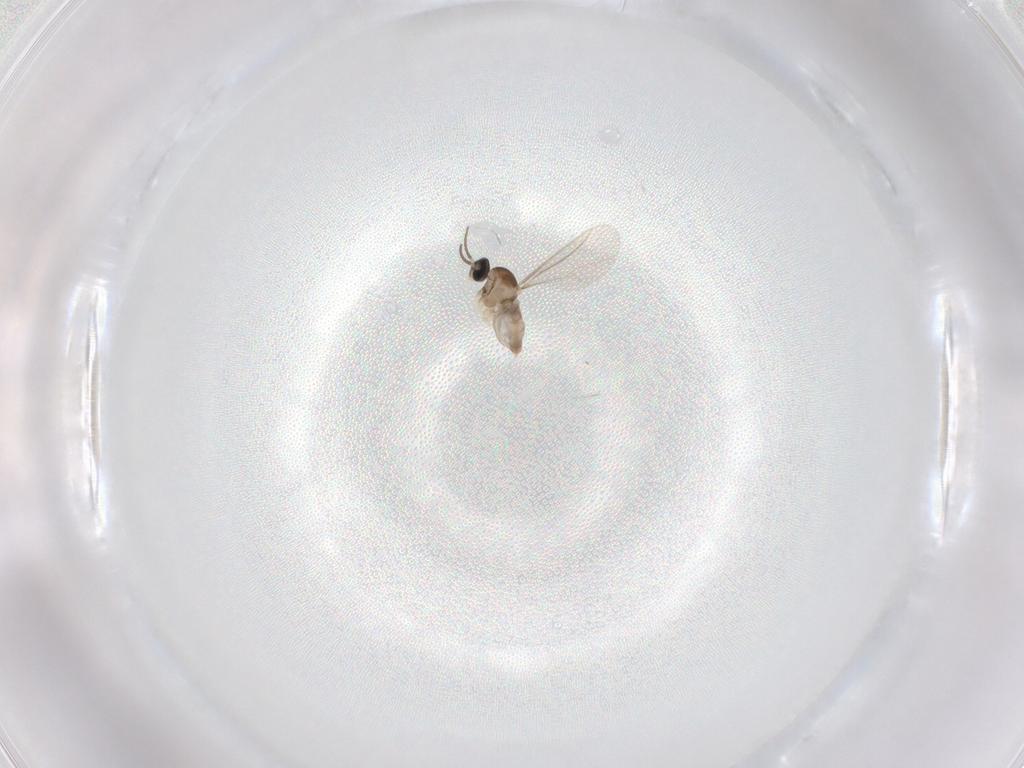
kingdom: Animalia
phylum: Arthropoda
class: Insecta
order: Diptera
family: Cecidomyiidae
